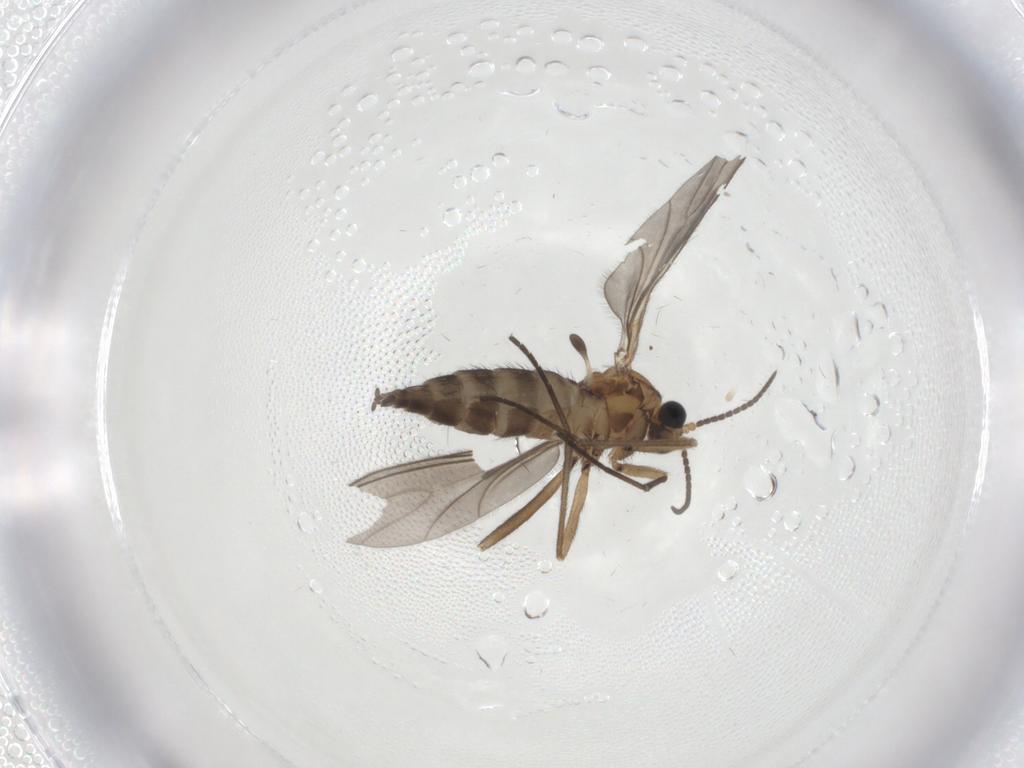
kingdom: Animalia
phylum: Arthropoda
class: Insecta
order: Diptera
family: Sciaridae
